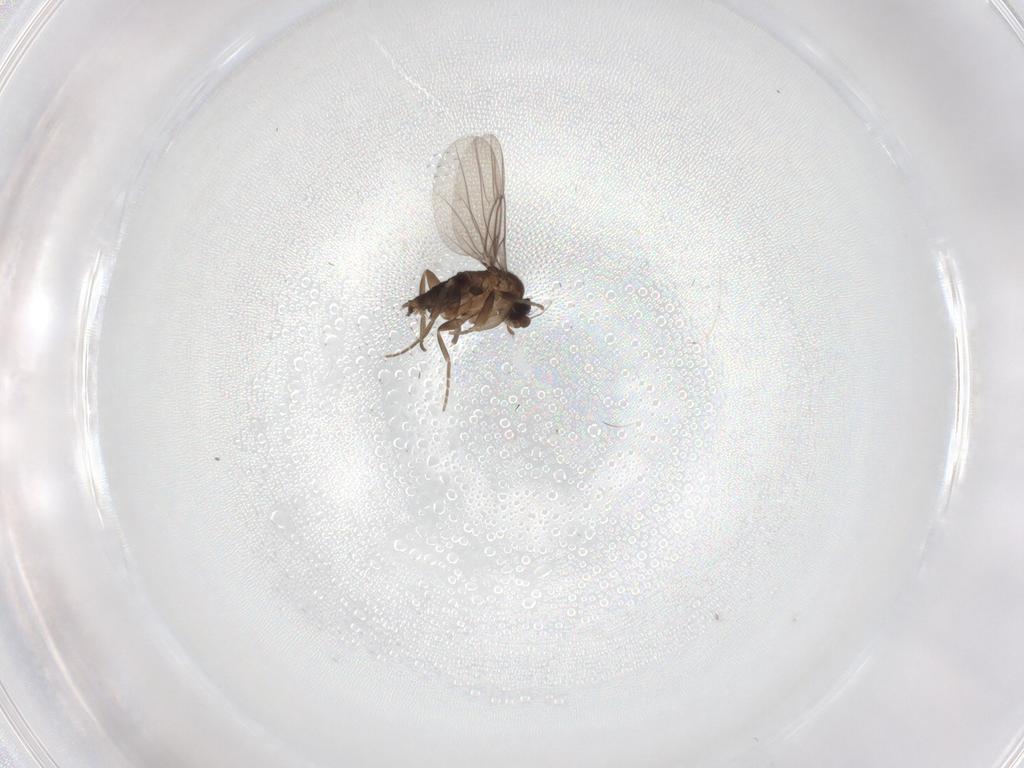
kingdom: Animalia
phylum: Arthropoda
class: Insecta
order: Diptera
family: Cecidomyiidae
